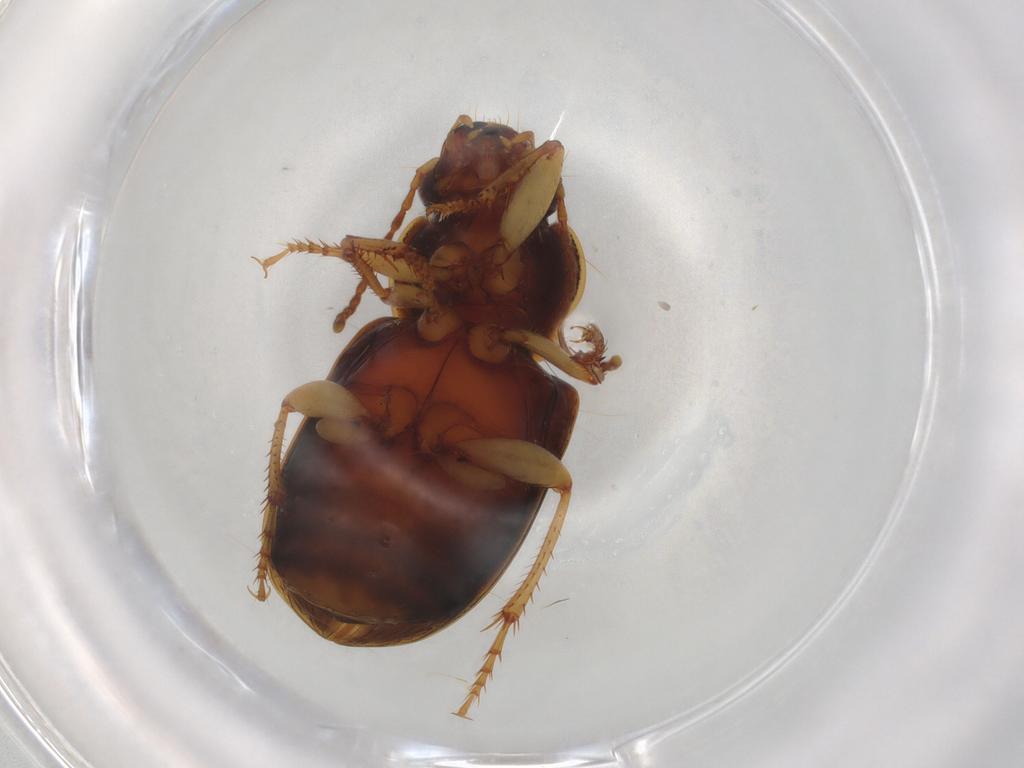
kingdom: Animalia
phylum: Arthropoda
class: Insecta
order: Coleoptera
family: Carabidae
